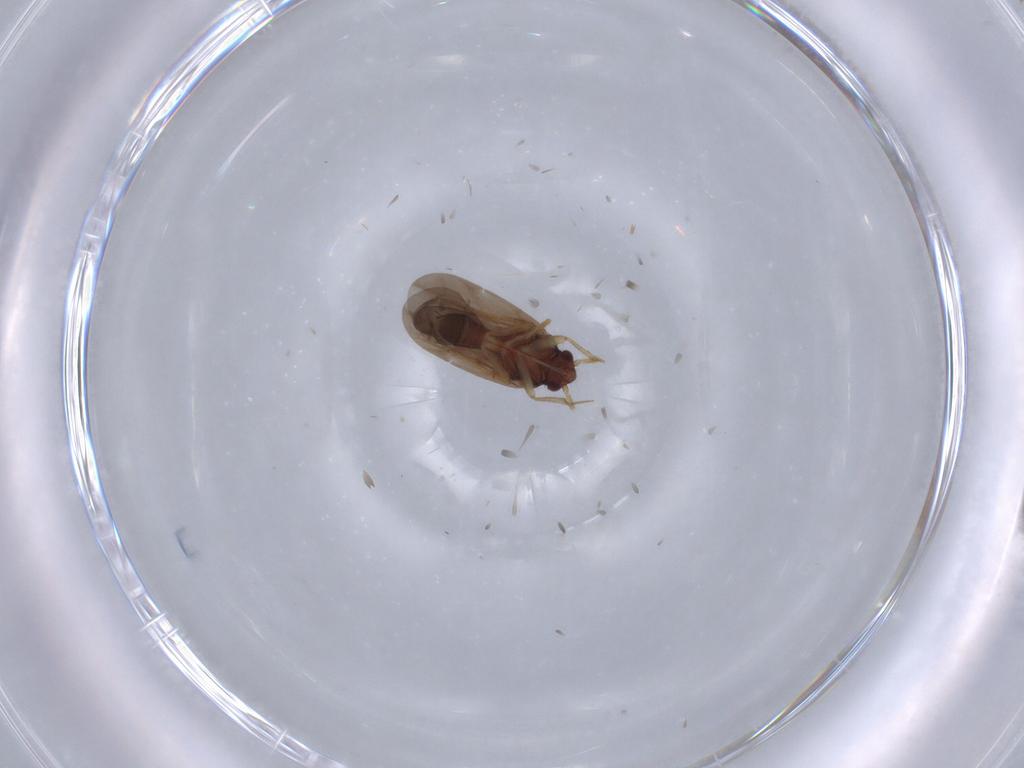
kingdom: Animalia
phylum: Arthropoda
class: Insecta
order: Hemiptera
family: Ceratocombidae
